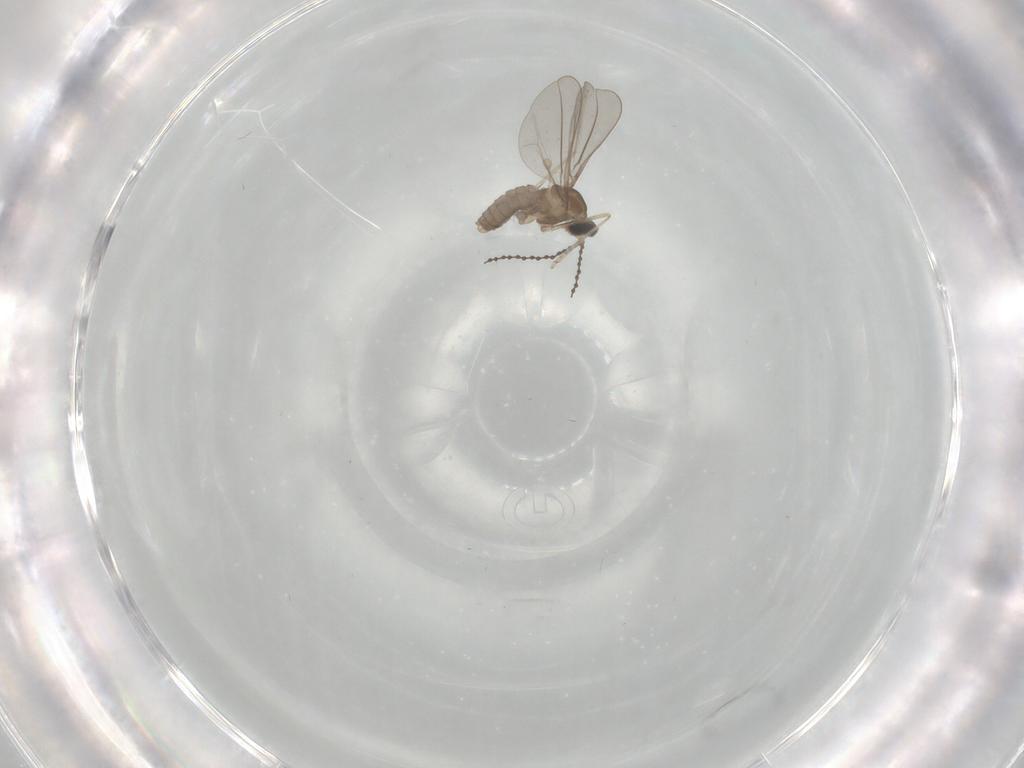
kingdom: Animalia
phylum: Arthropoda
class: Insecta
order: Diptera
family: Cecidomyiidae
